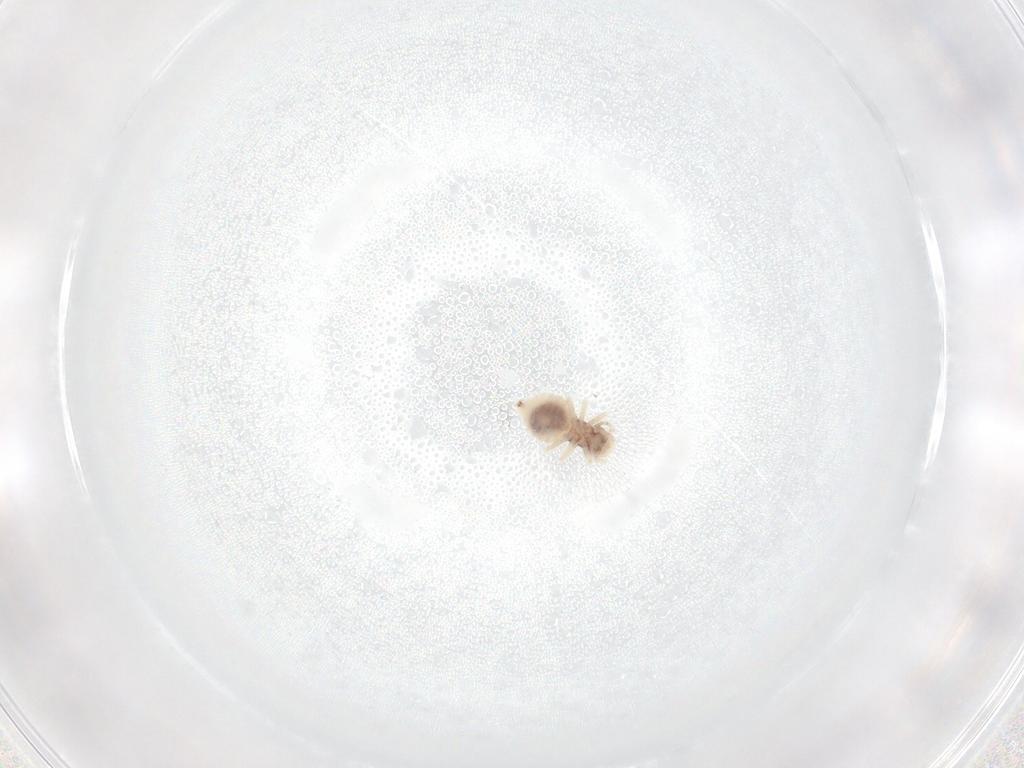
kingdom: Animalia
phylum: Arthropoda
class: Insecta
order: Psocodea
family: Amphipsocidae
